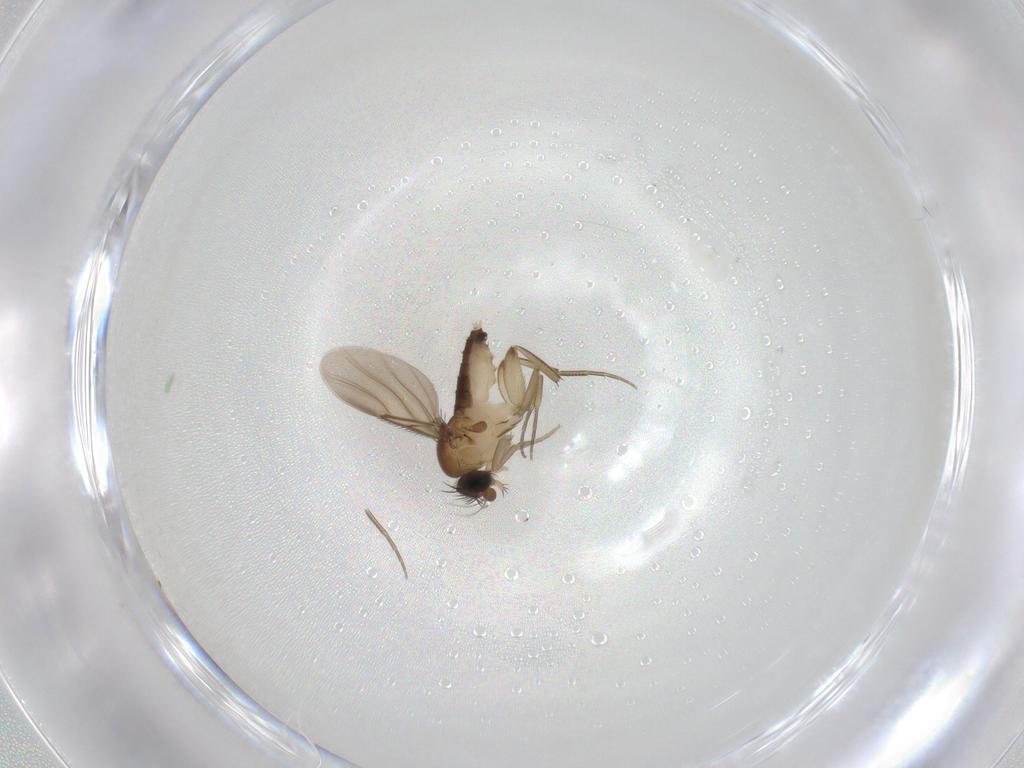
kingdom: Animalia
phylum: Arthropoda
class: Insecta
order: Diptera
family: Phoridae
